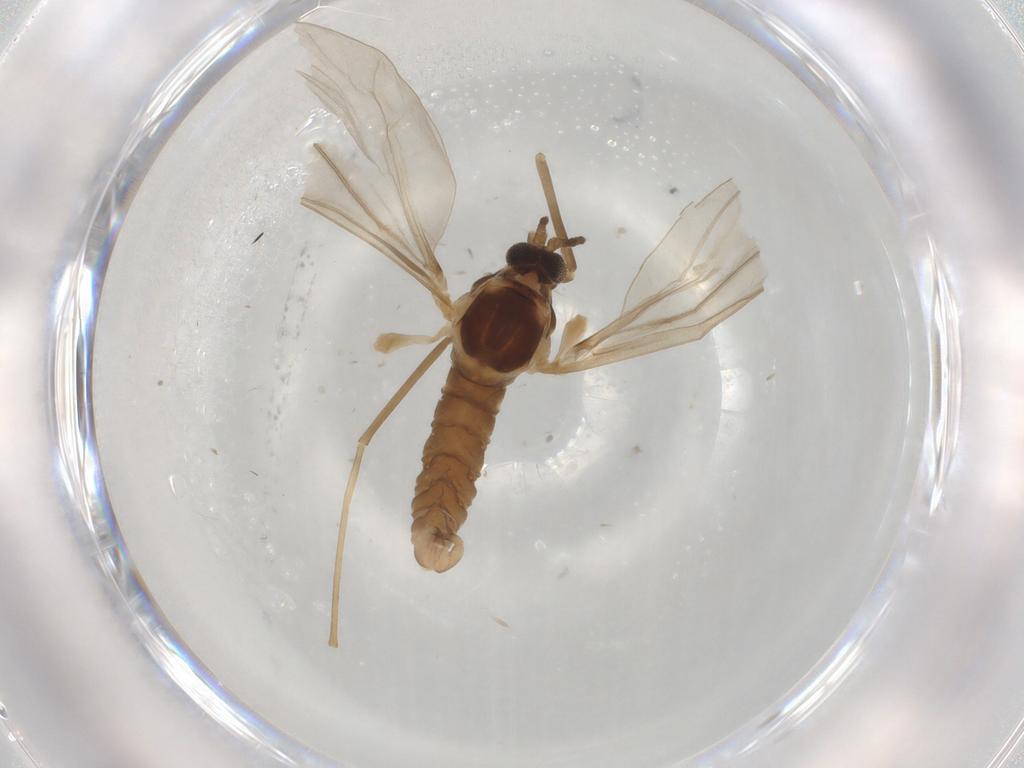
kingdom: Animalia
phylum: Arthropoda
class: Insecta
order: Diptera
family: Cecidomyiidae
